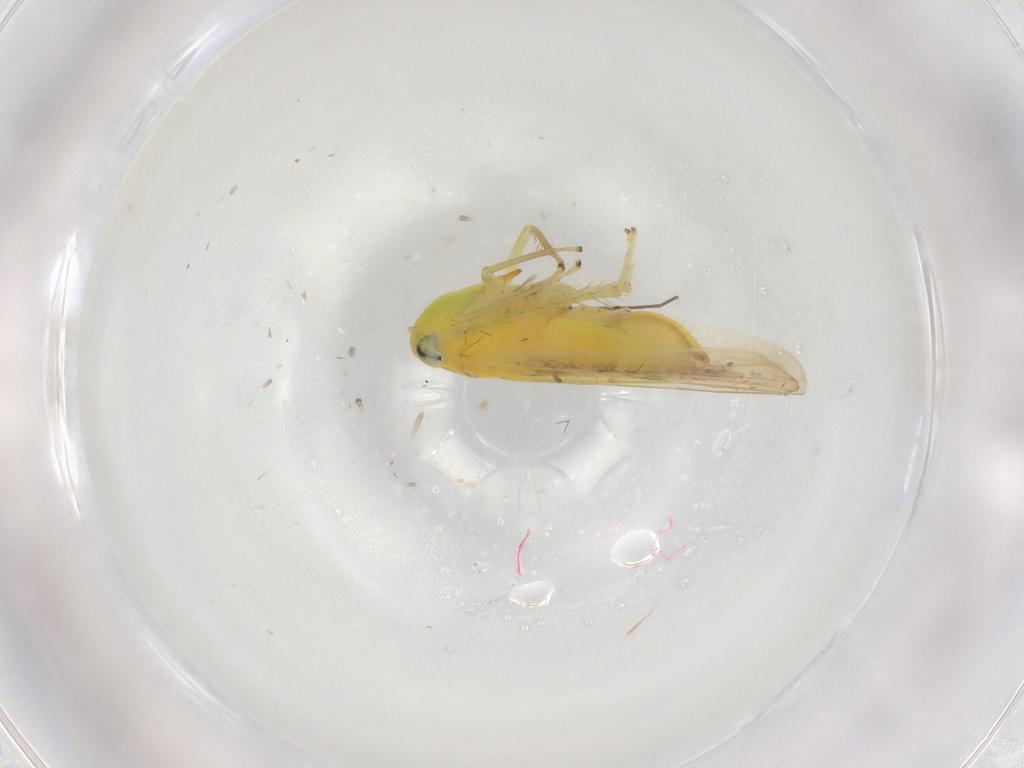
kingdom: Animalia
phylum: Arthropoda
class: Insecta
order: Hemiptera
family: Cicadellidae
